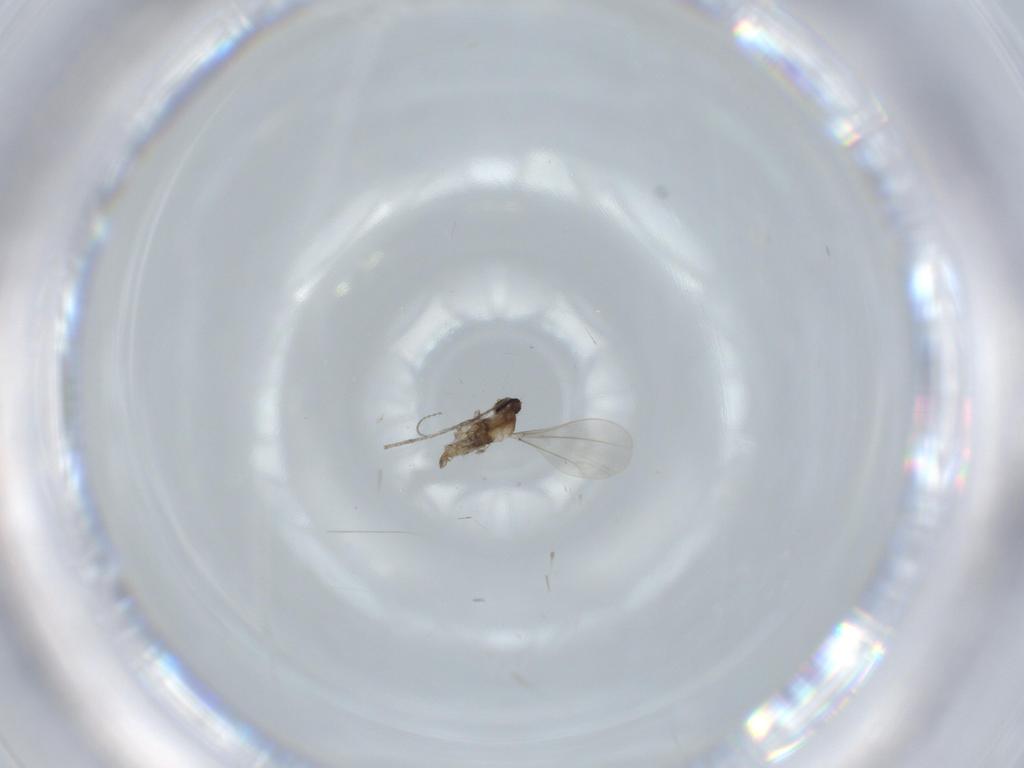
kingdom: Animalia
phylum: Arthropoda
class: Insecta
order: Diptera
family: Cecidomyiidae
